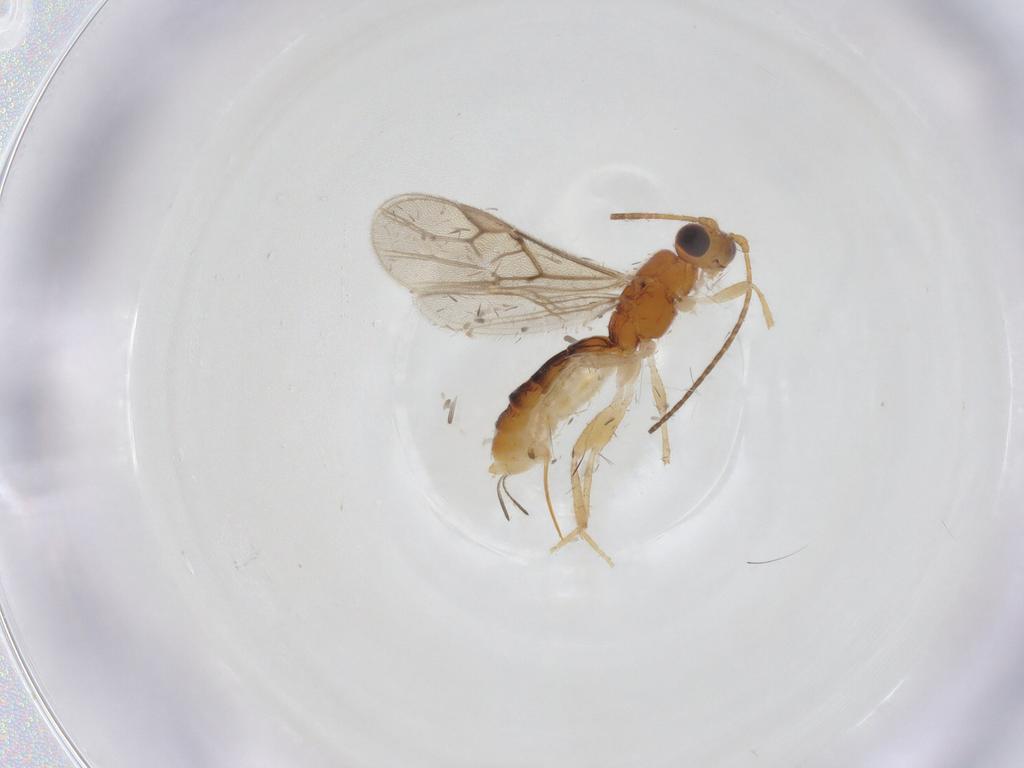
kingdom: Animalia
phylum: Arthropoda
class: Insecta
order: Hymenoptera
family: Braconidae
